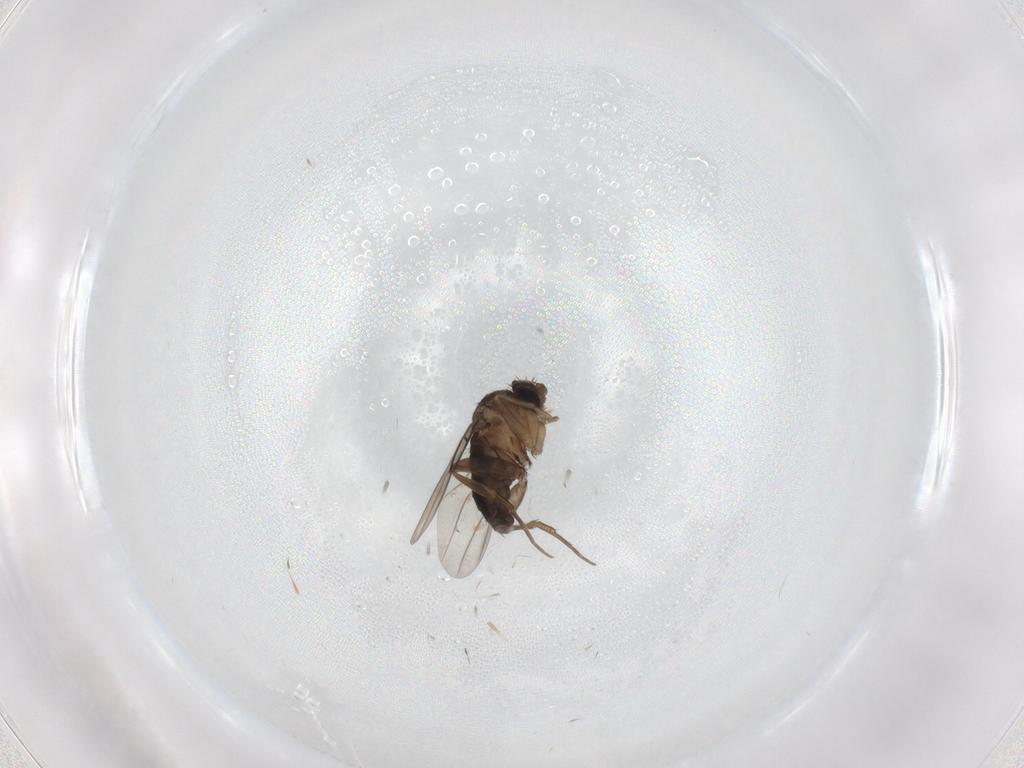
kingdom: Animalia
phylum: Arthropoda
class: Insecta
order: Diptera
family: Phoridae
